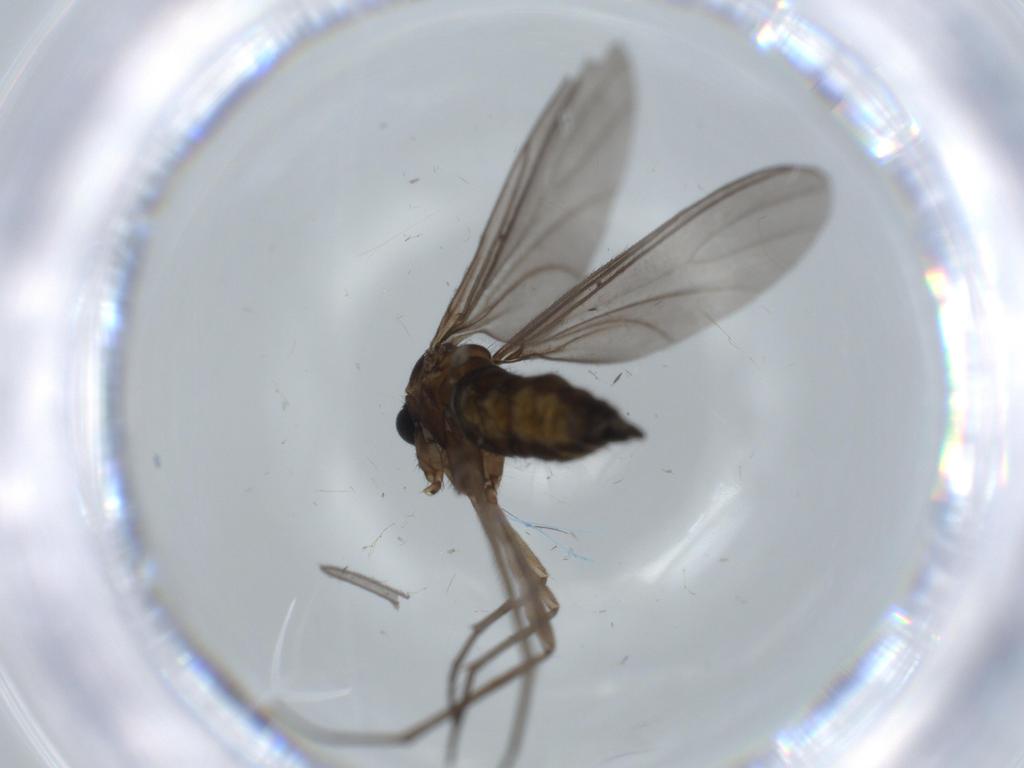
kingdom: Animalia
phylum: Arthropoda
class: Insecta
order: Diptera
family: Sciaridae
